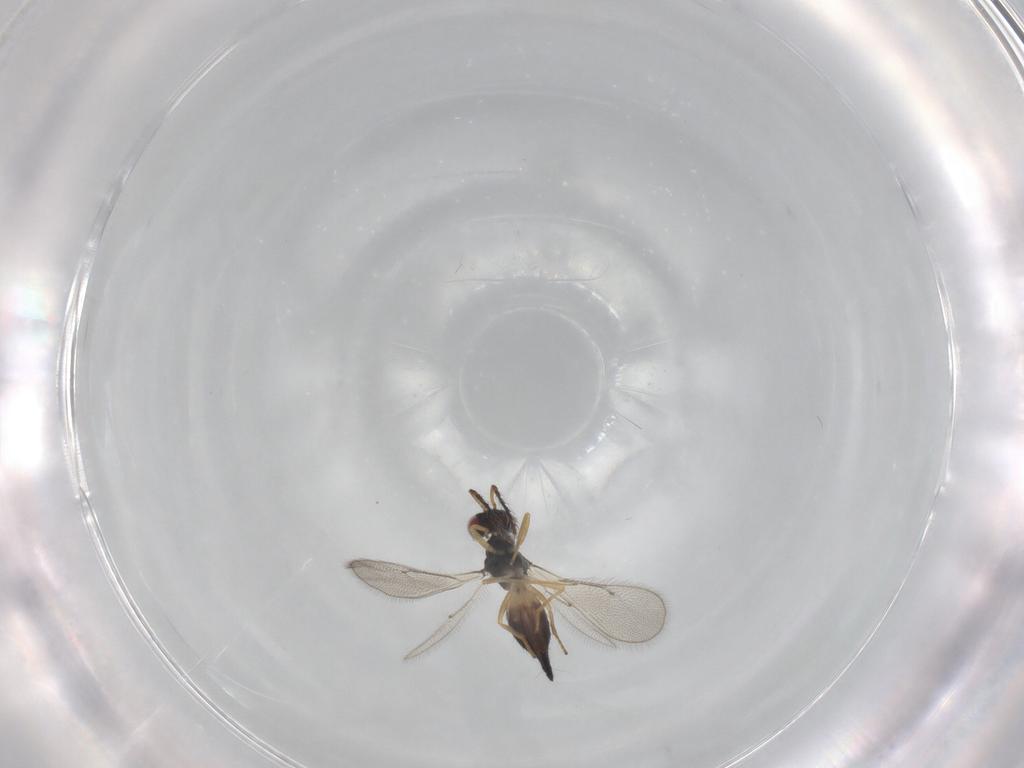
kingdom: Animalia
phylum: Arthropoda
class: Insecta
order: Hymenoptera
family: Eulophidae
